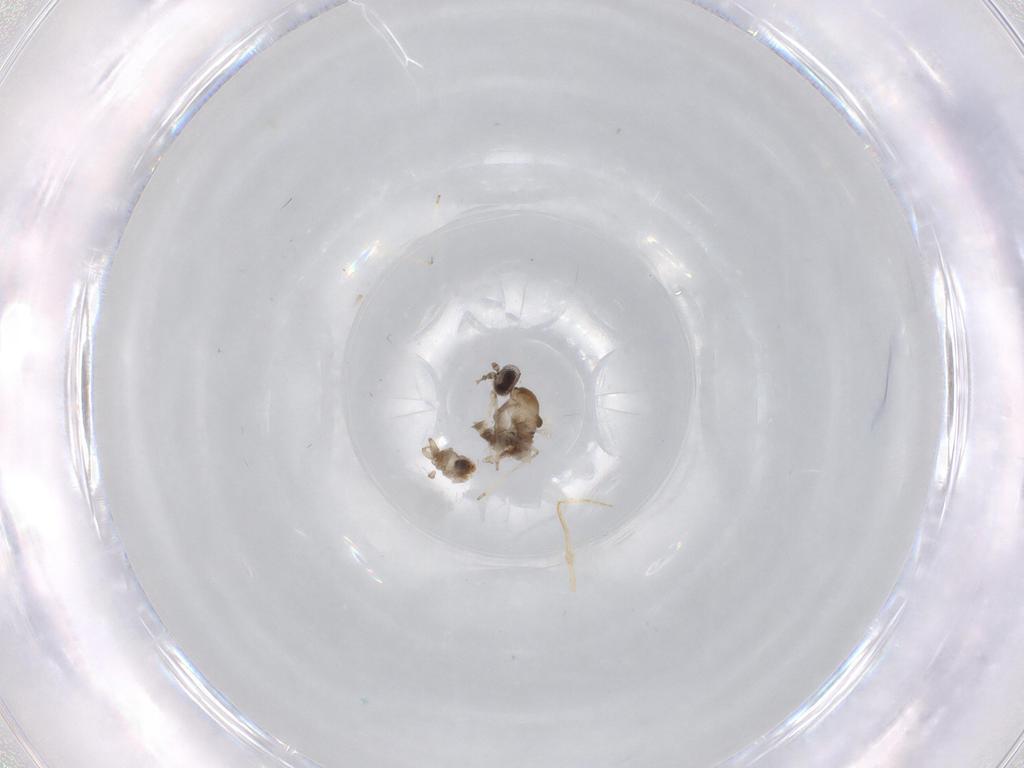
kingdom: Animalia
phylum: Arthropoda
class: Insecta
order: Diptera
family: Cecidomyiidae
